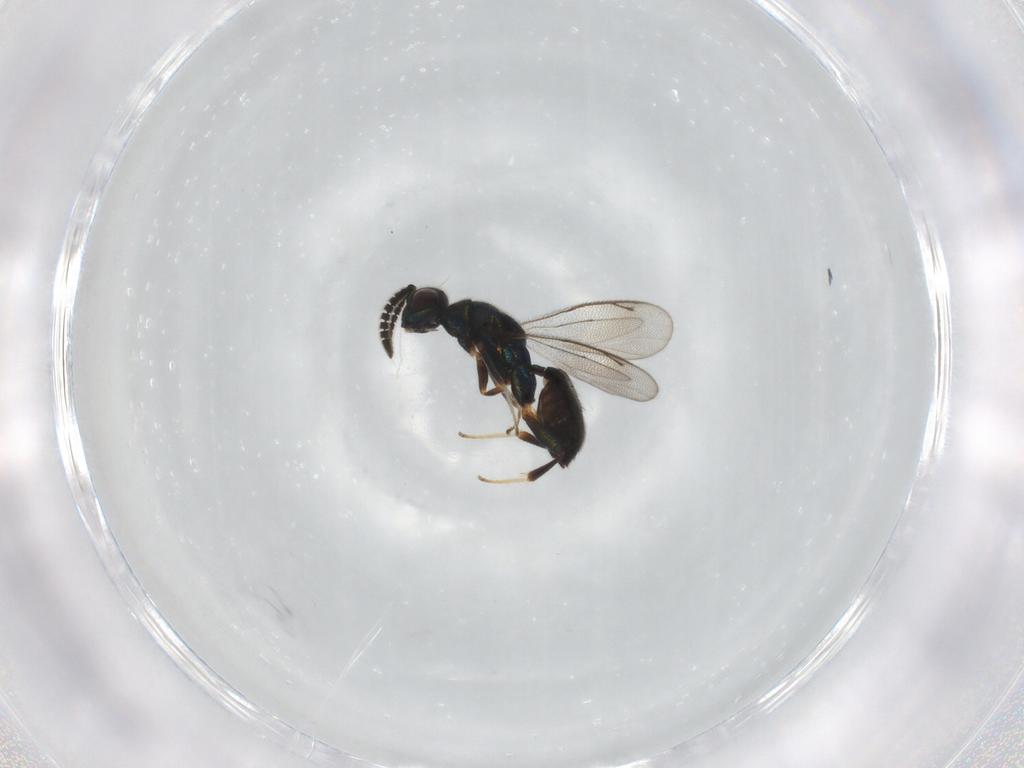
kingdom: Animalia
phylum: Arthropoda
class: Insecta
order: Hymenoptera
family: Cleonyminae
